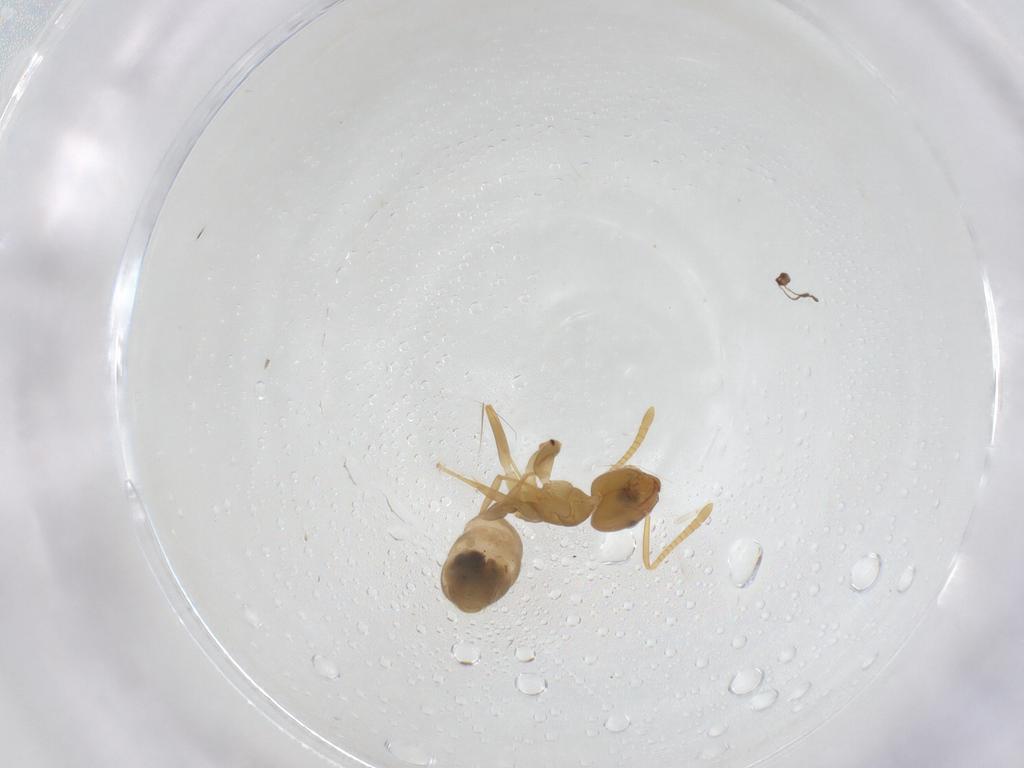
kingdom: Animalia
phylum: Arthropoda
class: Insecta
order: Hymenoptera
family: Formicidae
